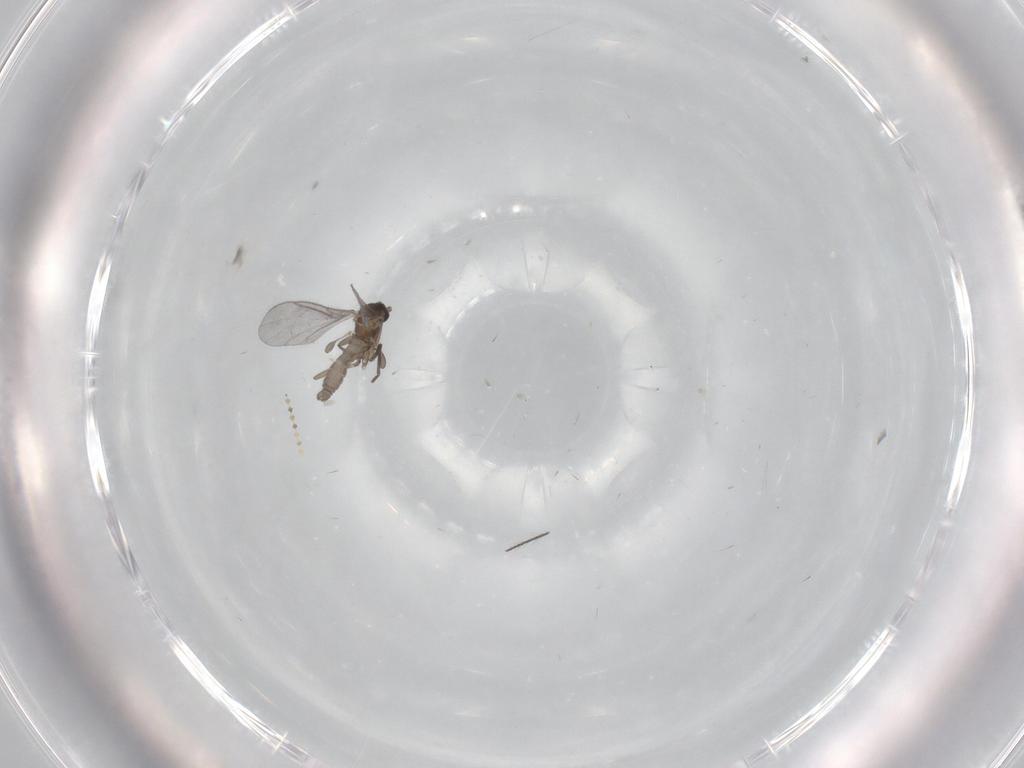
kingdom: Animalia
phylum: Arthropoda
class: Insecta
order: Diptera
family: Sciaridae
